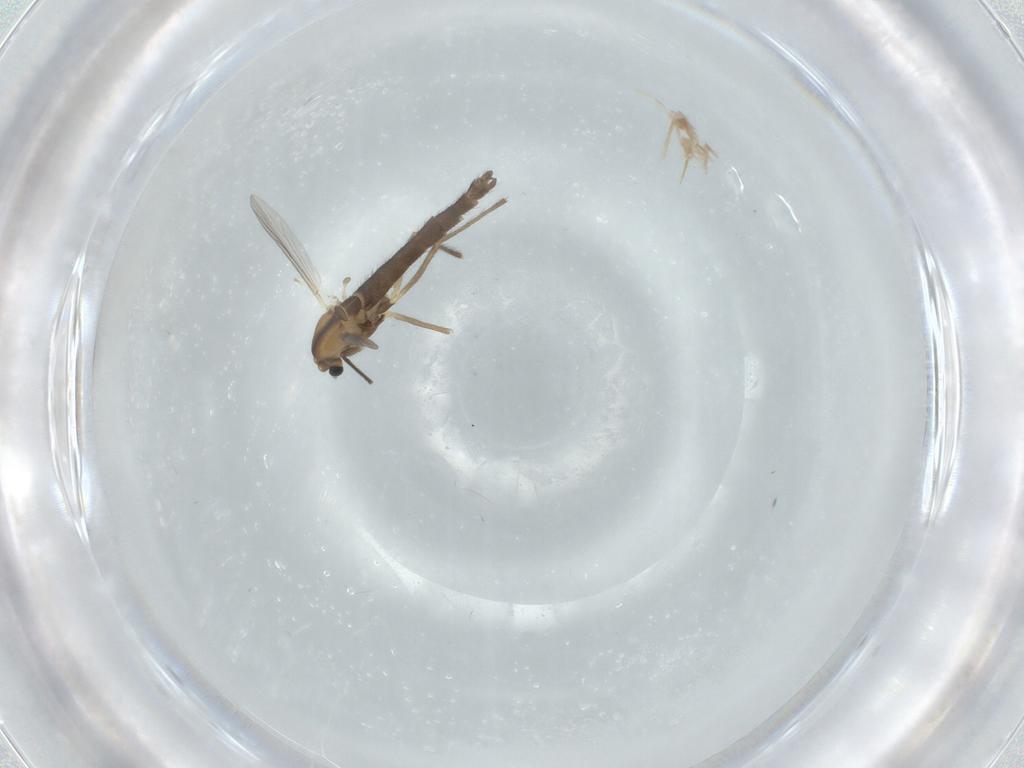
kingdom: Animalia
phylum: Arthropoda
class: Insecta
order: Diptera
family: Chironomidae
